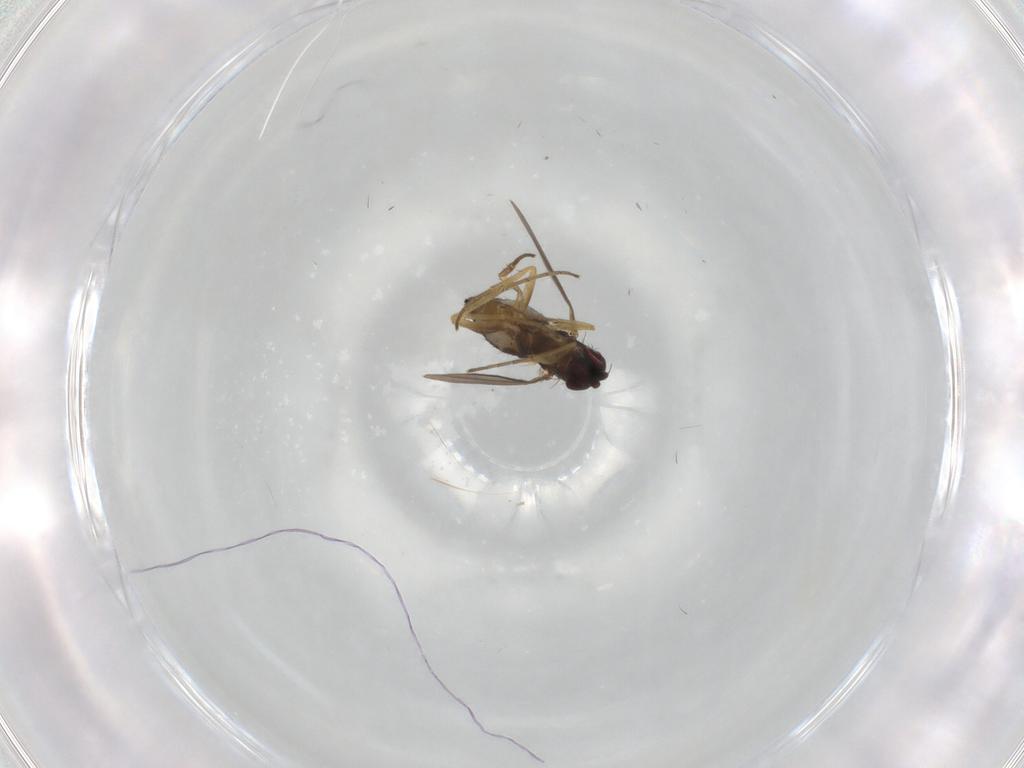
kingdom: Animalia
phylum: Arthropoda
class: Insecta
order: Diptera
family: Dolichopodidae
